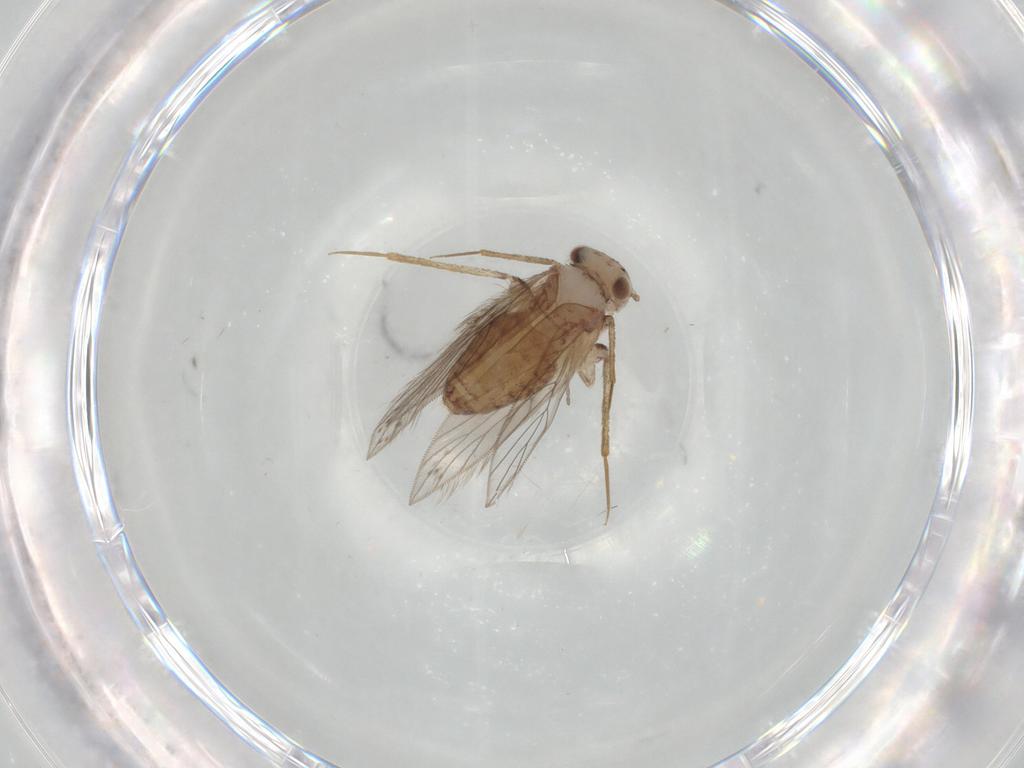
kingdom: Animalia
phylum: Arthropoda
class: Insecta
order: Psocodea
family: Lepidopsocidae
